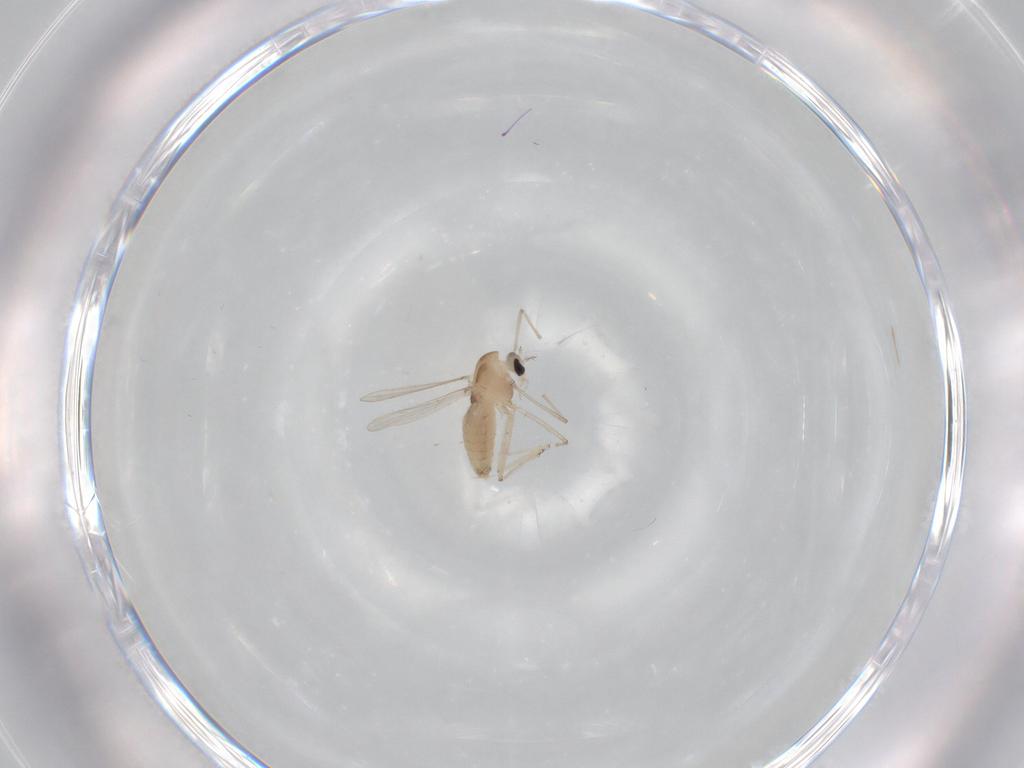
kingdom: Animalia
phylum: Arthropoda
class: Insecta
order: Diptera
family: Chironomidae
